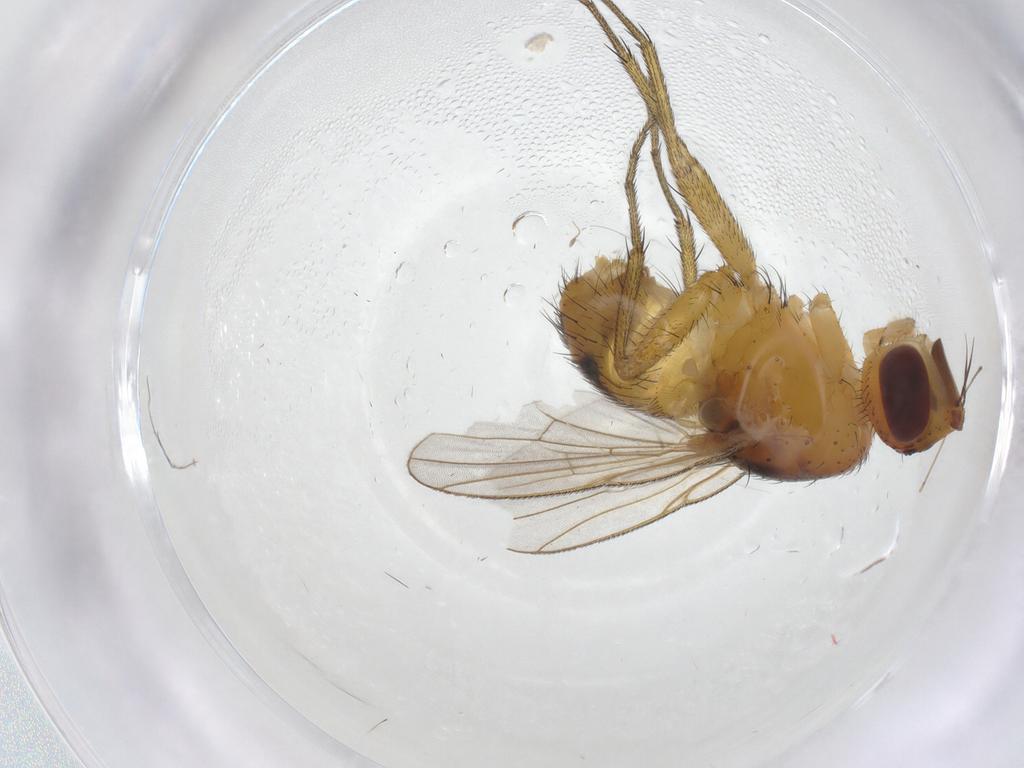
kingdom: Animalia
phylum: Arthropoda
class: Insecta
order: Diptera
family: Muscidae
